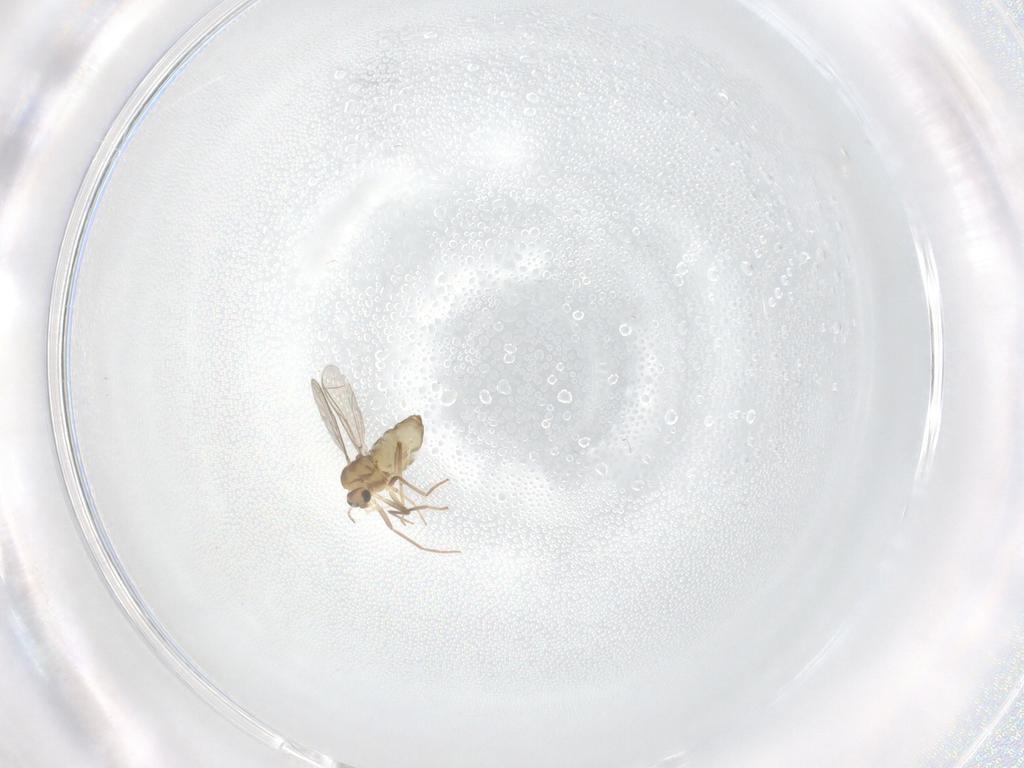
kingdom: Animalia
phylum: Arthropoda
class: Insecta
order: Diptera
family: Chironomidae
